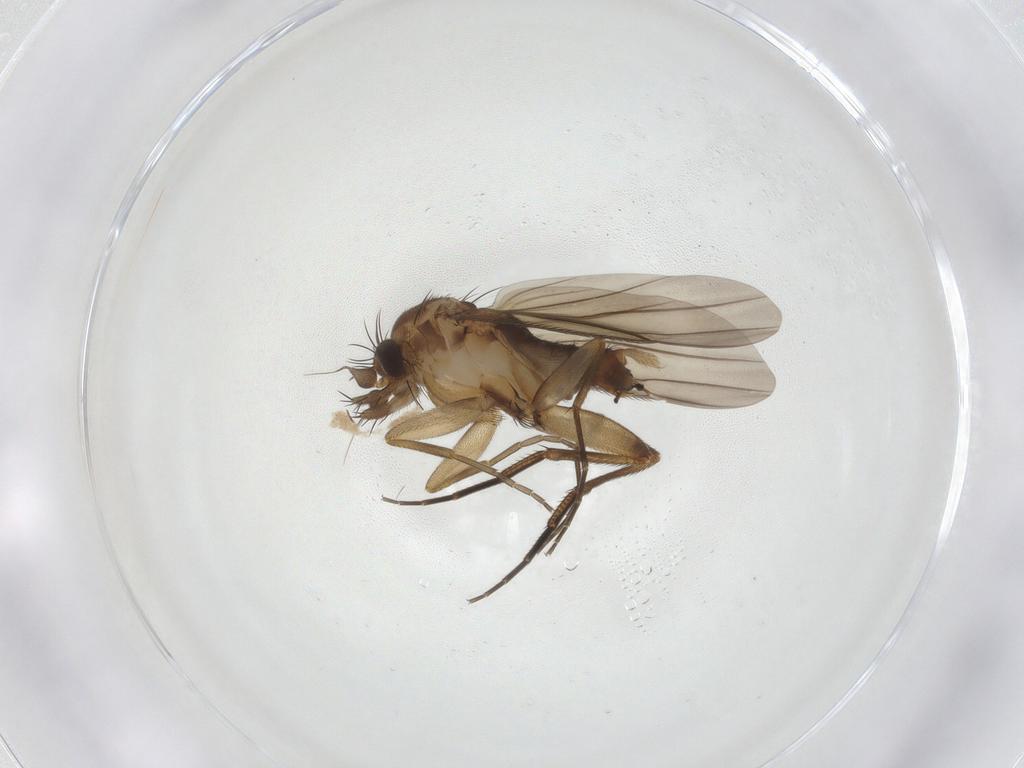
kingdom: Animalia
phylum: Arthropoda
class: Insecta
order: Diptera
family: Phoridae
